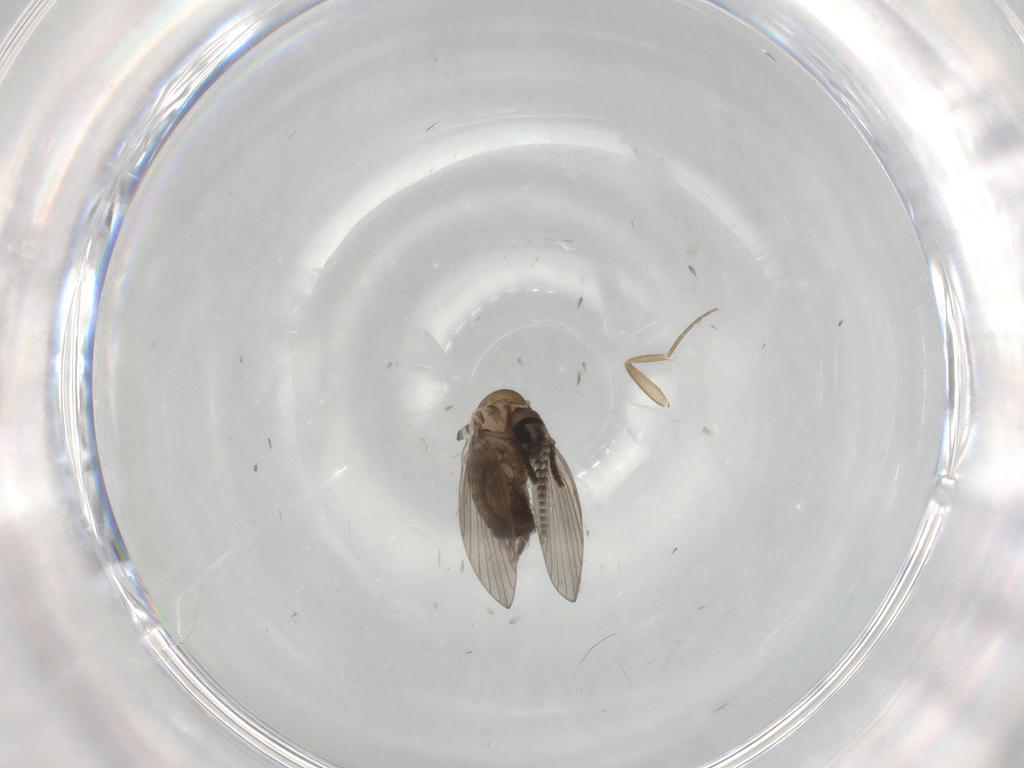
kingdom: Animalia
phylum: Arthropoda
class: Insecta
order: Diptera
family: Phoridae
